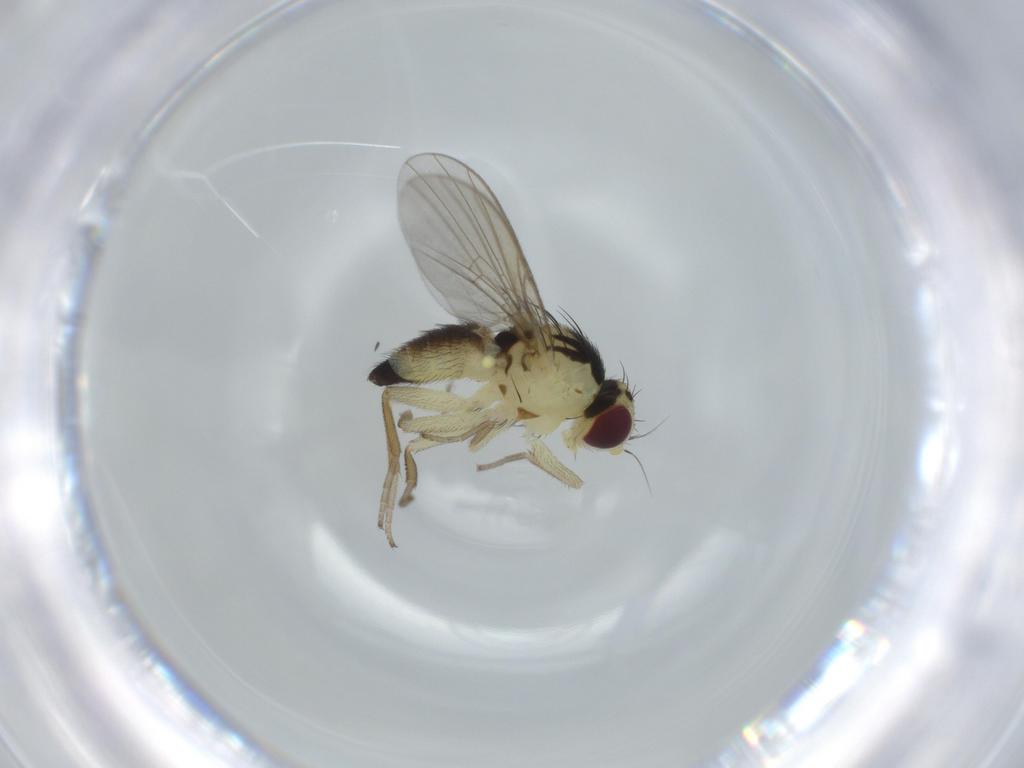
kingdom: Animalia
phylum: Arthropoda
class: Insecta
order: Diptera
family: Agromyzidae
